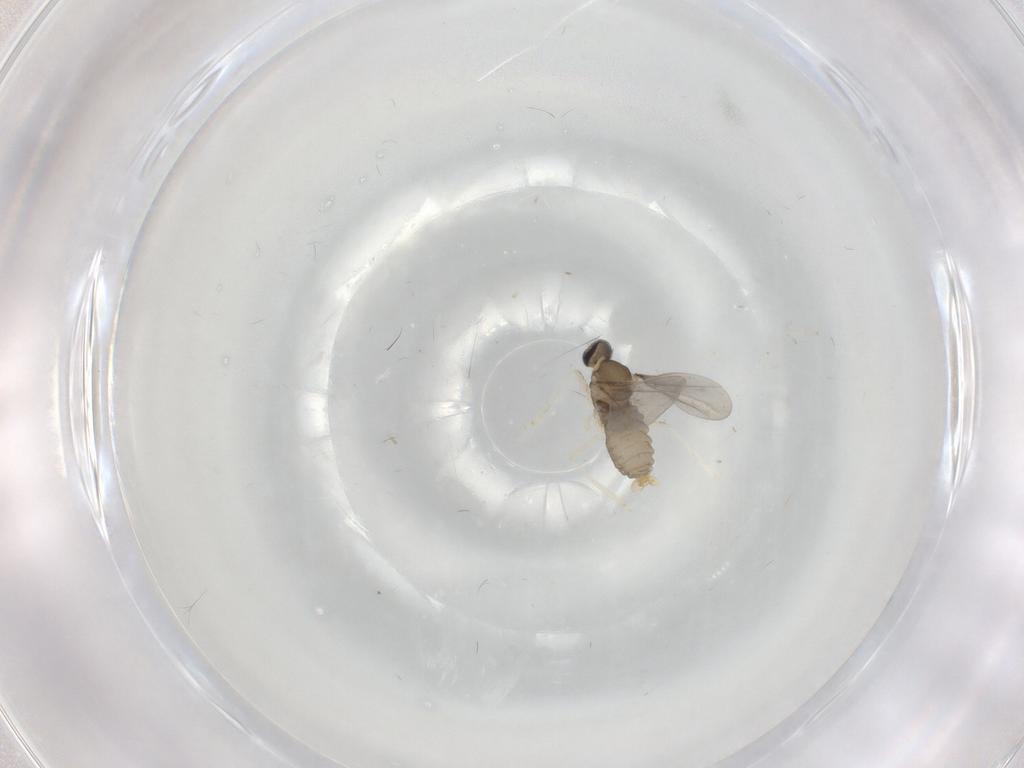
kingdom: Animalia
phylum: Arthropoda
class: Insecta
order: Diptera
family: Cecidomyiidae
